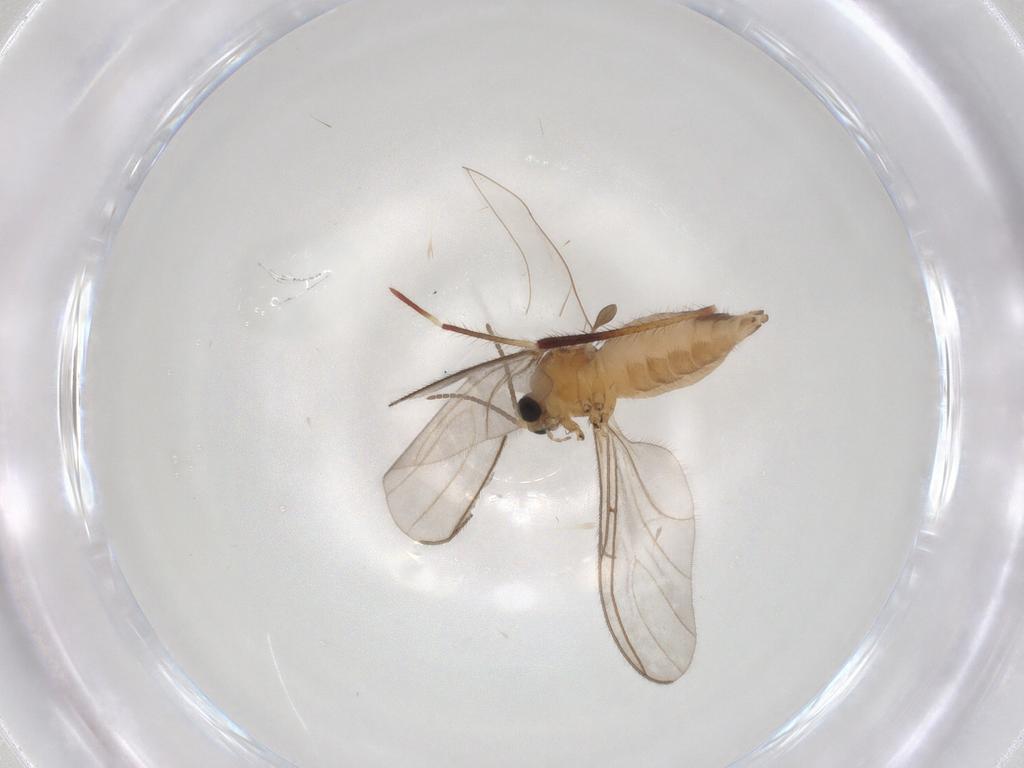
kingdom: Animalia
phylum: Arthropoda
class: Insecta
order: Diptera
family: Sciaridae
